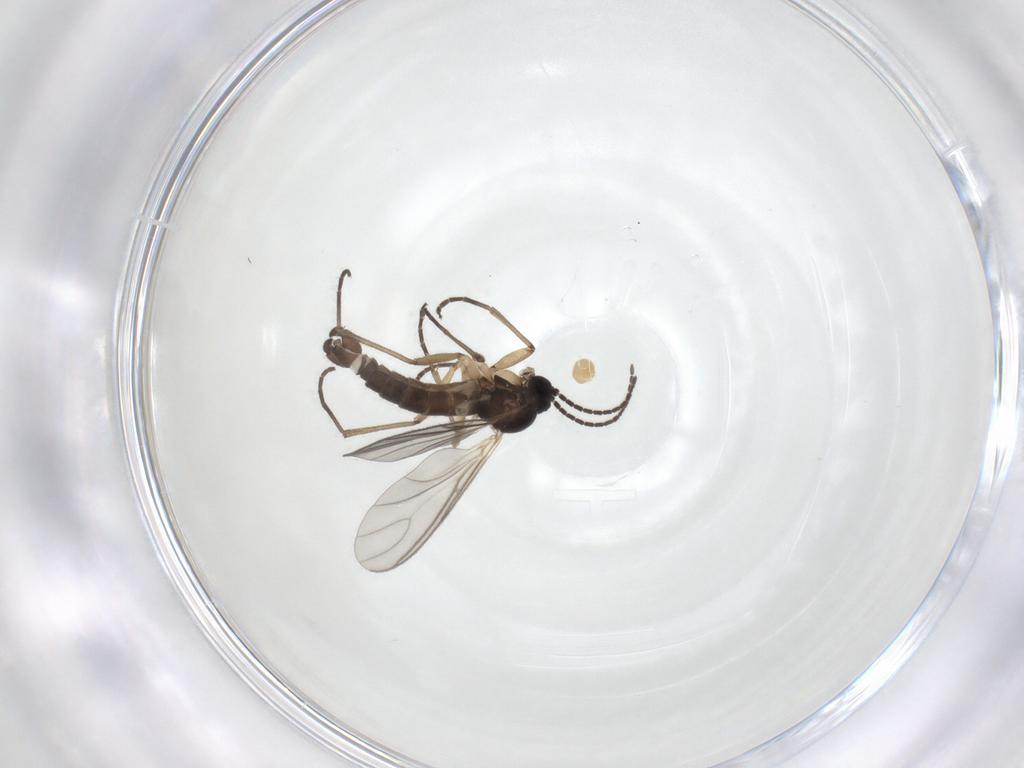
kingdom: Animalia
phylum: Arthropoda
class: Insecta
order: Diptera
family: Sciaridae
